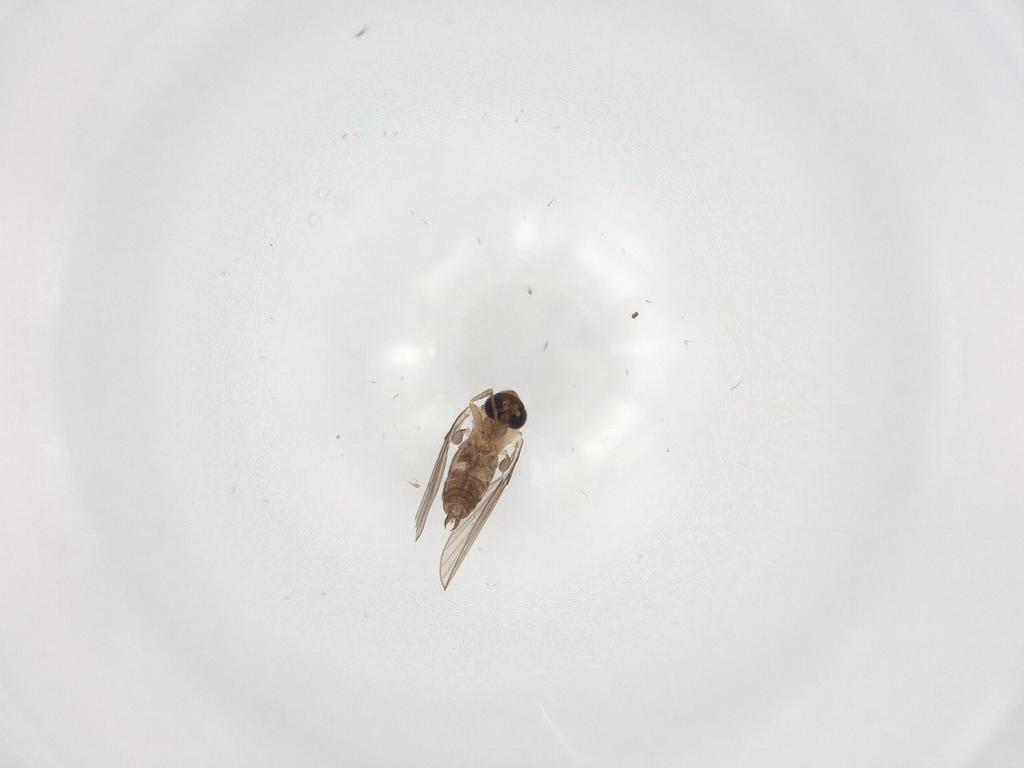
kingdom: Animalia
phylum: Arthropoda
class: Insecta
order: Diptera
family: Psychodidae
